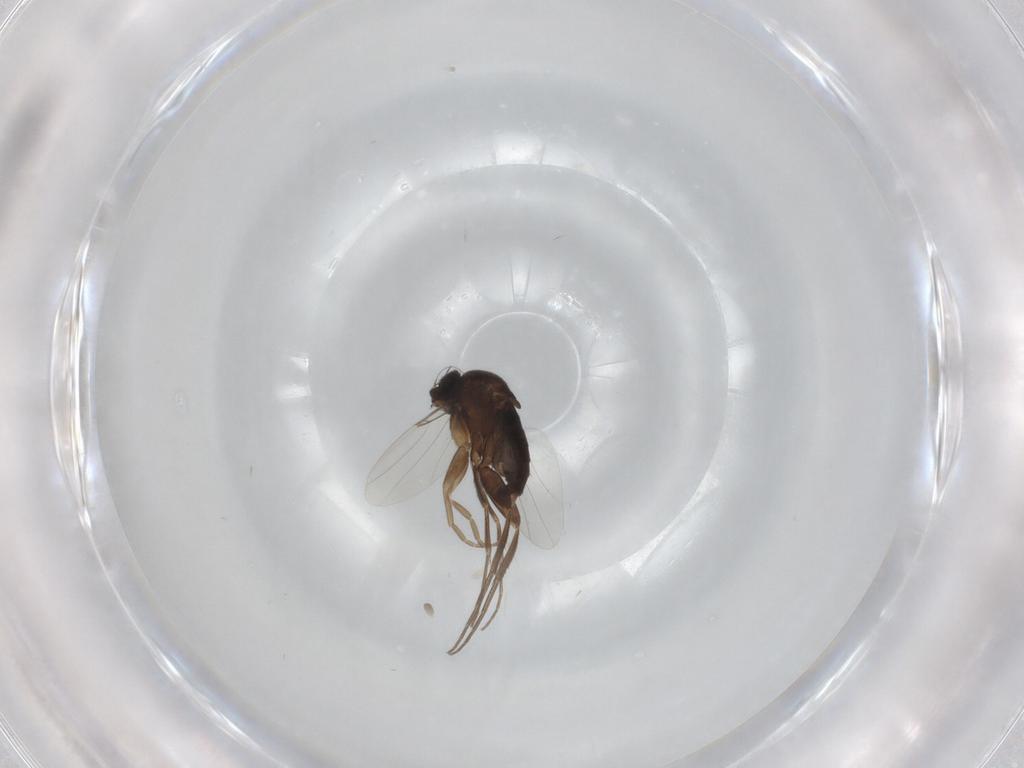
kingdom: Animalia
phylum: Arthropoda
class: Insecta
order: Diptera
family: Phoridae
